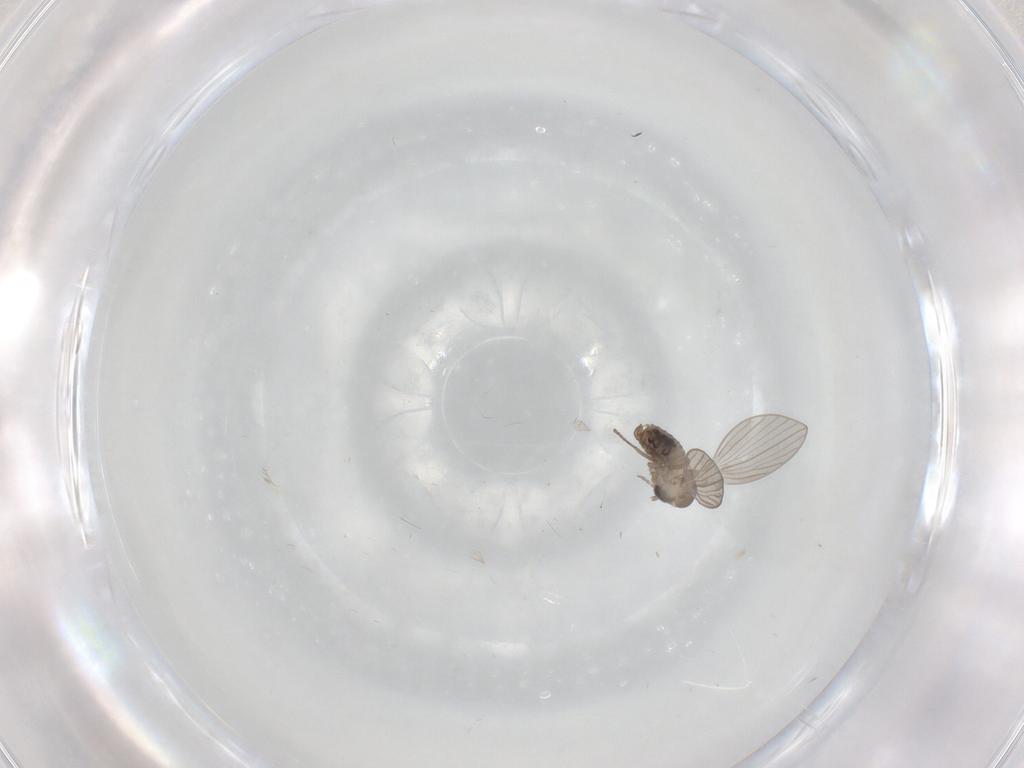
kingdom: Animalia
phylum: Arthropoda
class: Insecta
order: Diptera
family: Psychodidae
